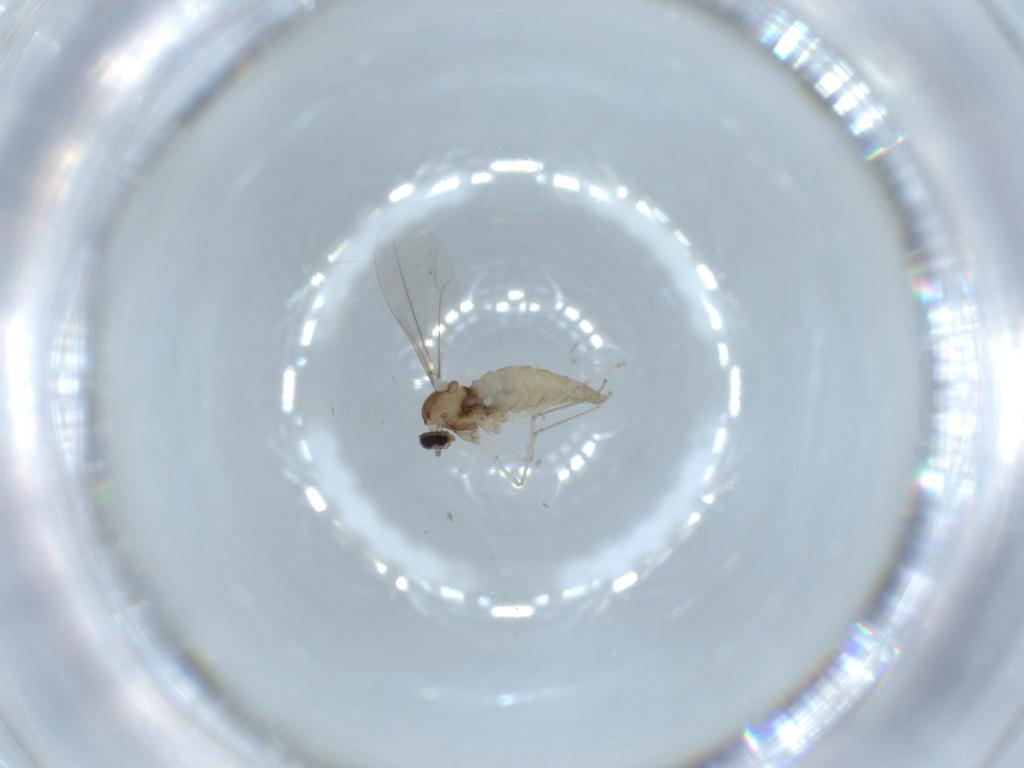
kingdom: Animalia
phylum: Arthropoda
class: Insecta
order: Diptera
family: Cecidomyiidae
